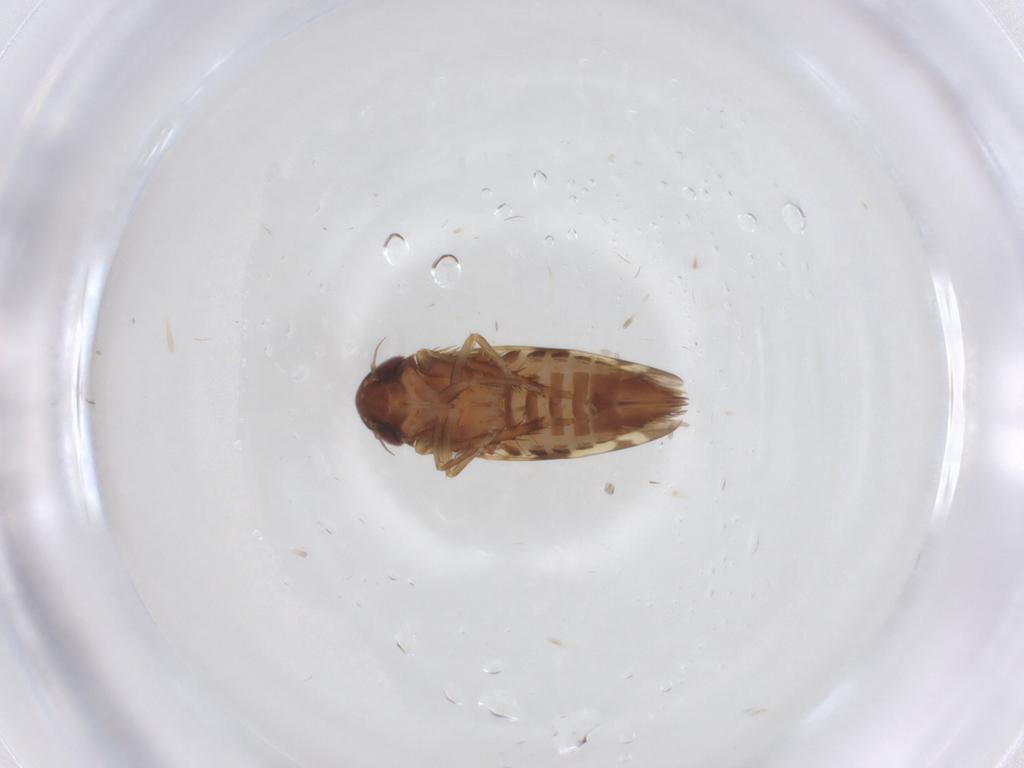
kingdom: Animalia
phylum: Arthropoda
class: Insecta
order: Hemiptera
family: Cicadellidae
